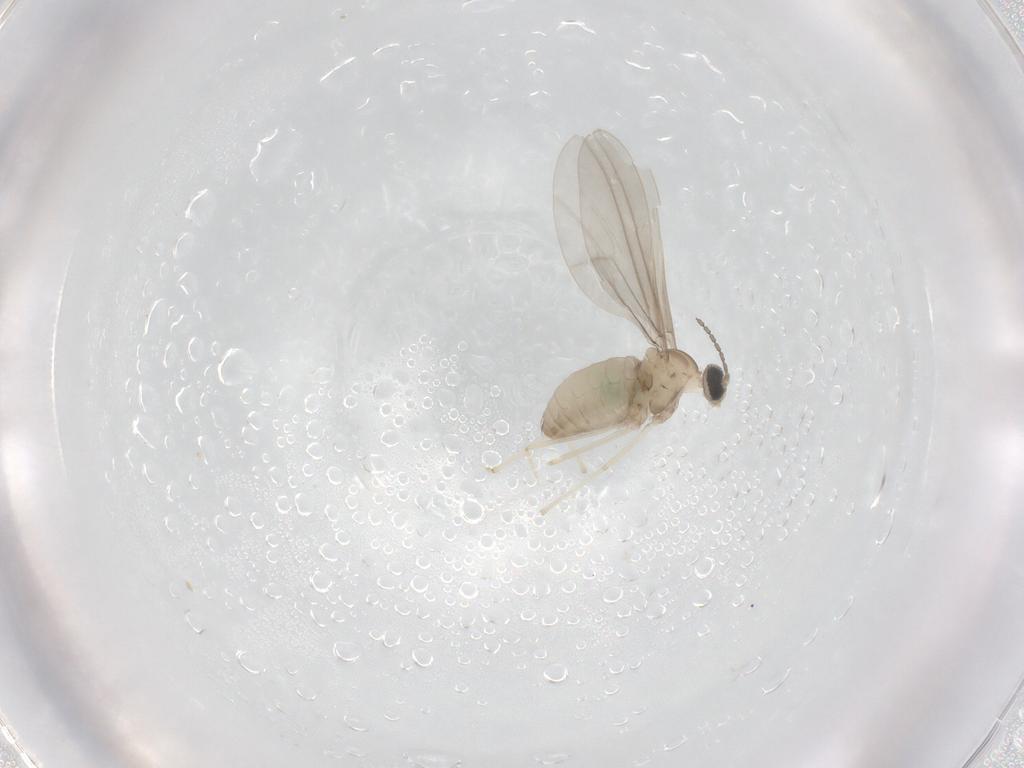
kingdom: Animalia
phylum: Arthropoda
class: Insecta
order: Diptera
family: Cecidomyiidae
